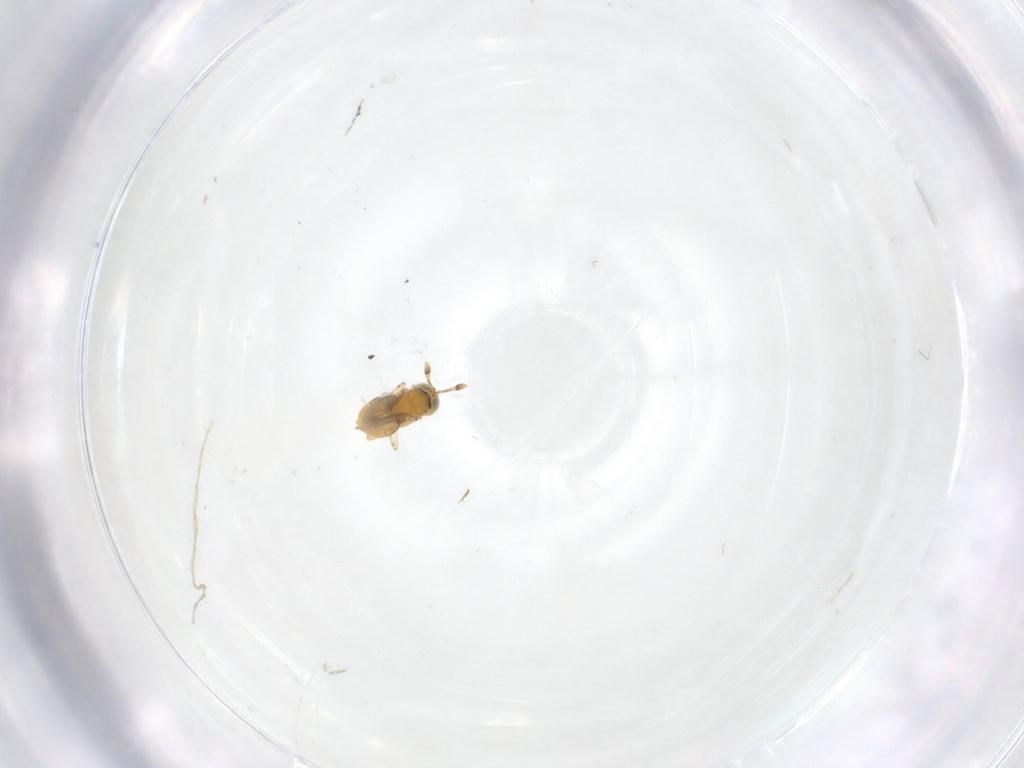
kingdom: Animalia
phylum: Arthropoda
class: Insecta
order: Hymenoptera
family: Encyrtidae
